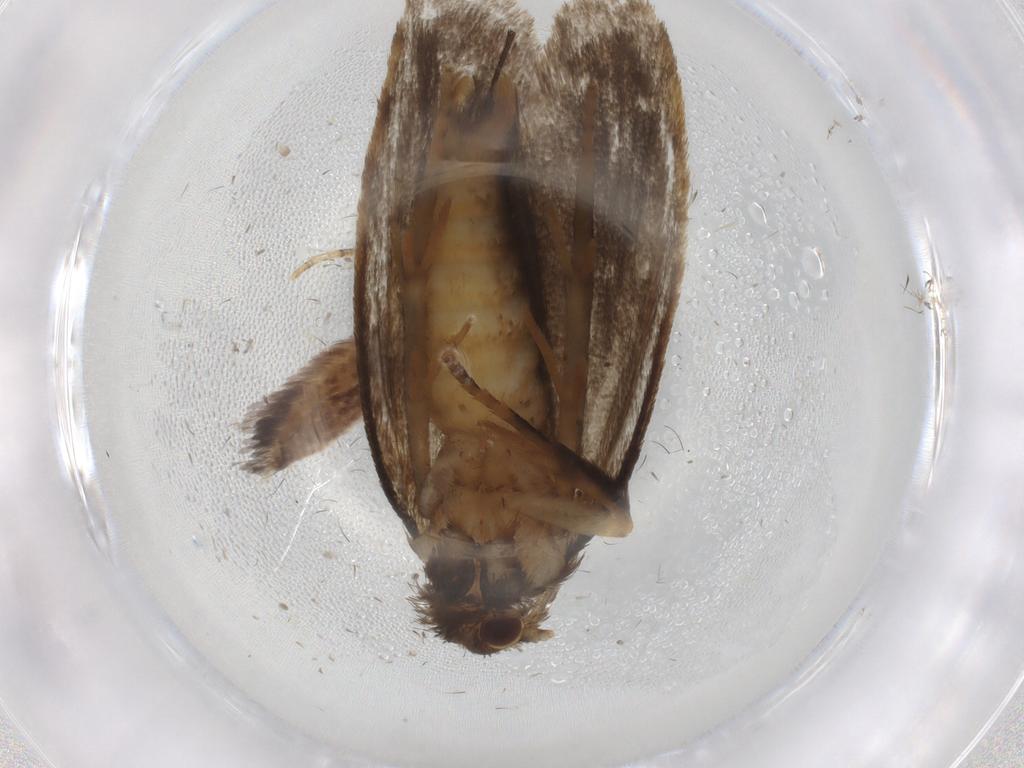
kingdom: Animalia
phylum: Arthropoda
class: Insecta
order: Lepidoptera
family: Tineidae
